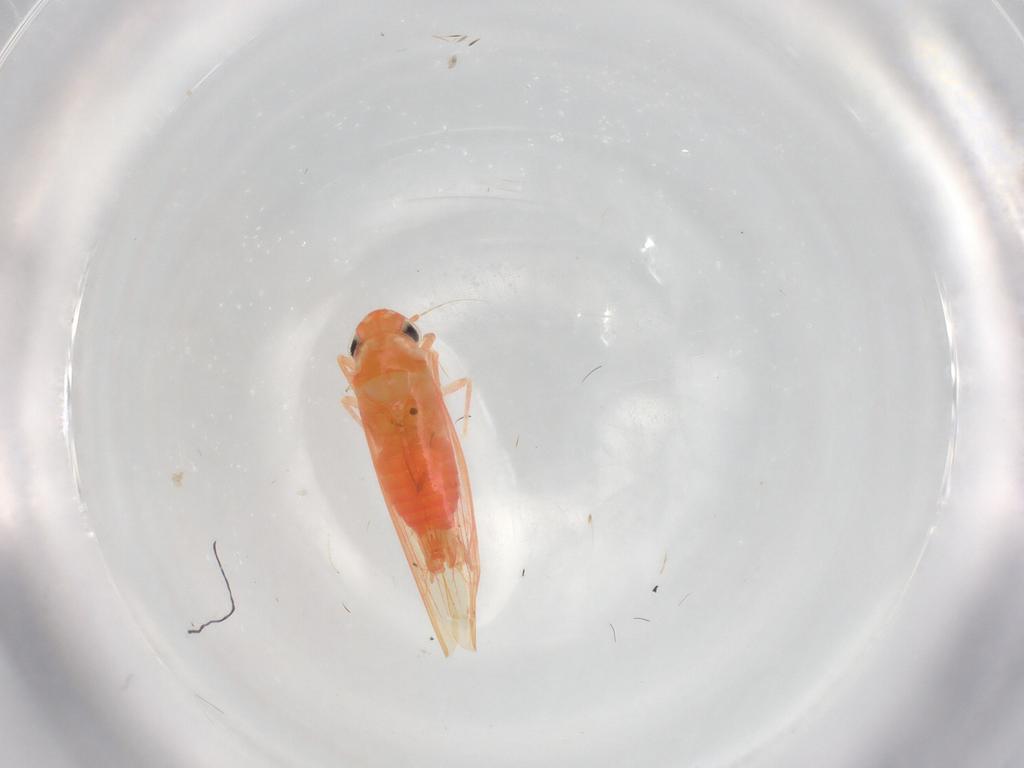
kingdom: Animalia
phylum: Arthropoda
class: Insecta
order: Hemiptera
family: Cicadellidae
